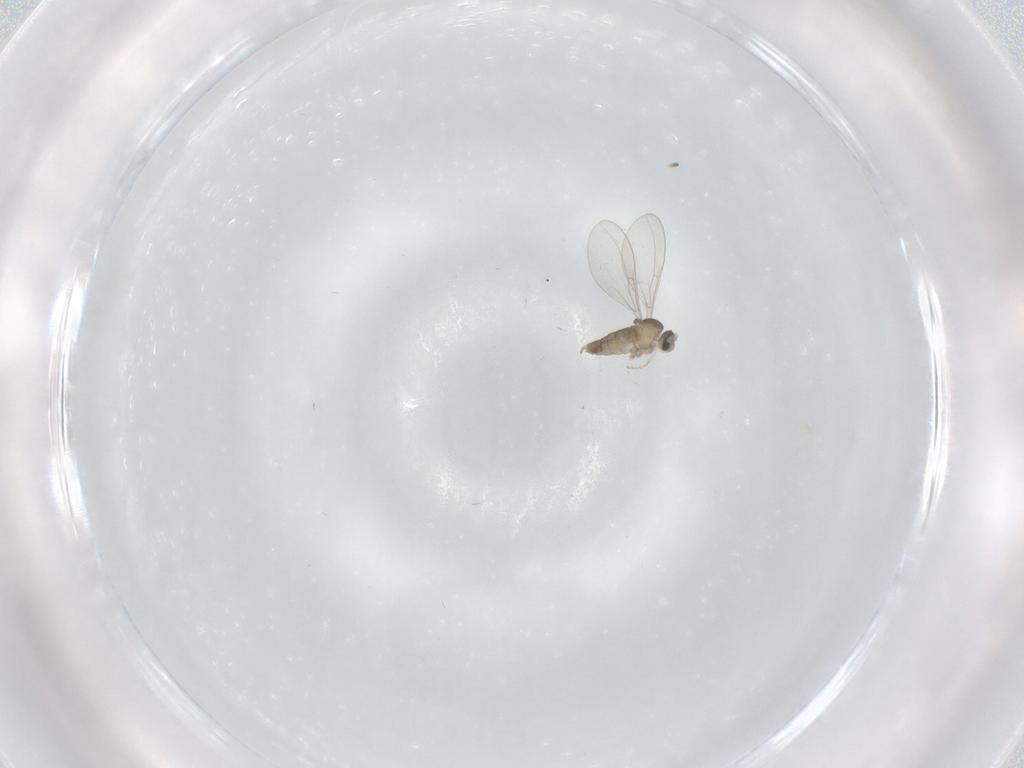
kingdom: Animalia
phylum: Arthropoda
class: Insecta
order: Diptera
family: Cecidomyiidae
